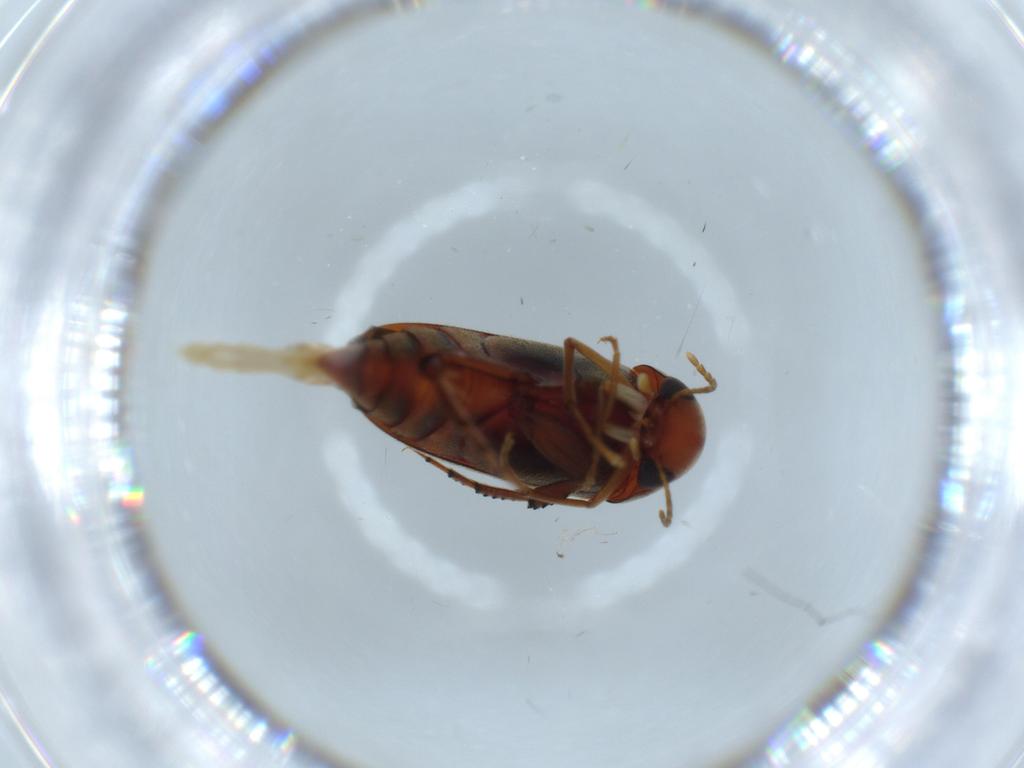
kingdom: Animalia
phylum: Arthropoda
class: Insecta
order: Coleoptera
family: Mordellidae
